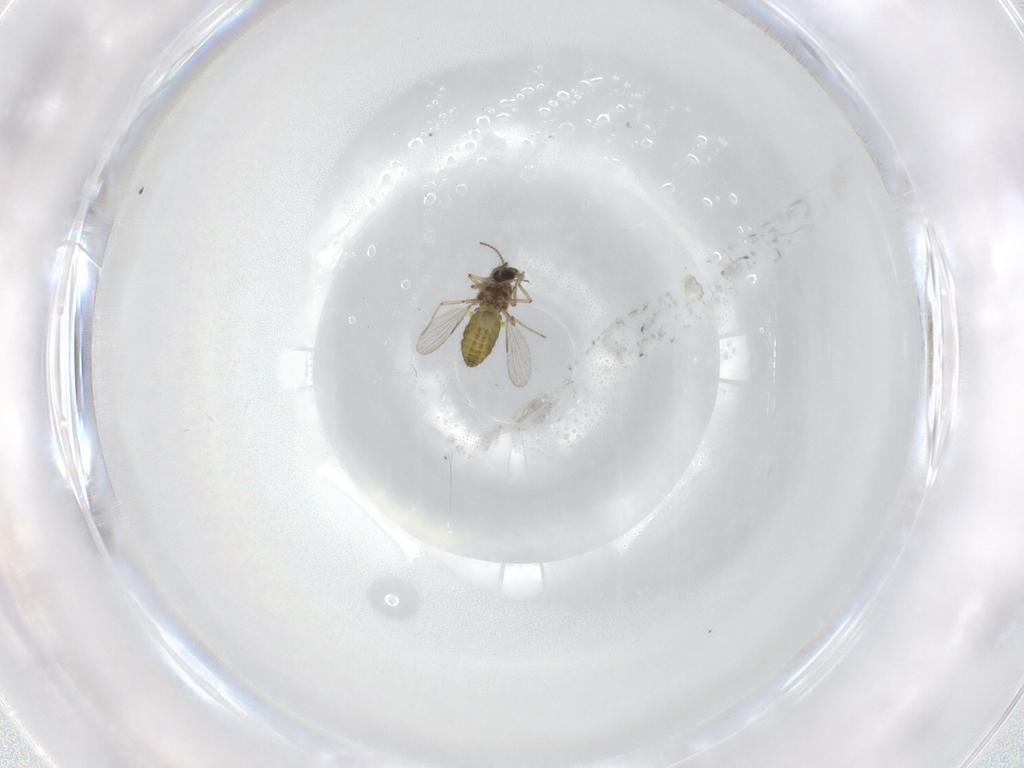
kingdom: Animalia
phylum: Arthropoda
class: Insecta
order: Diptera
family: Ceratopogonidae
